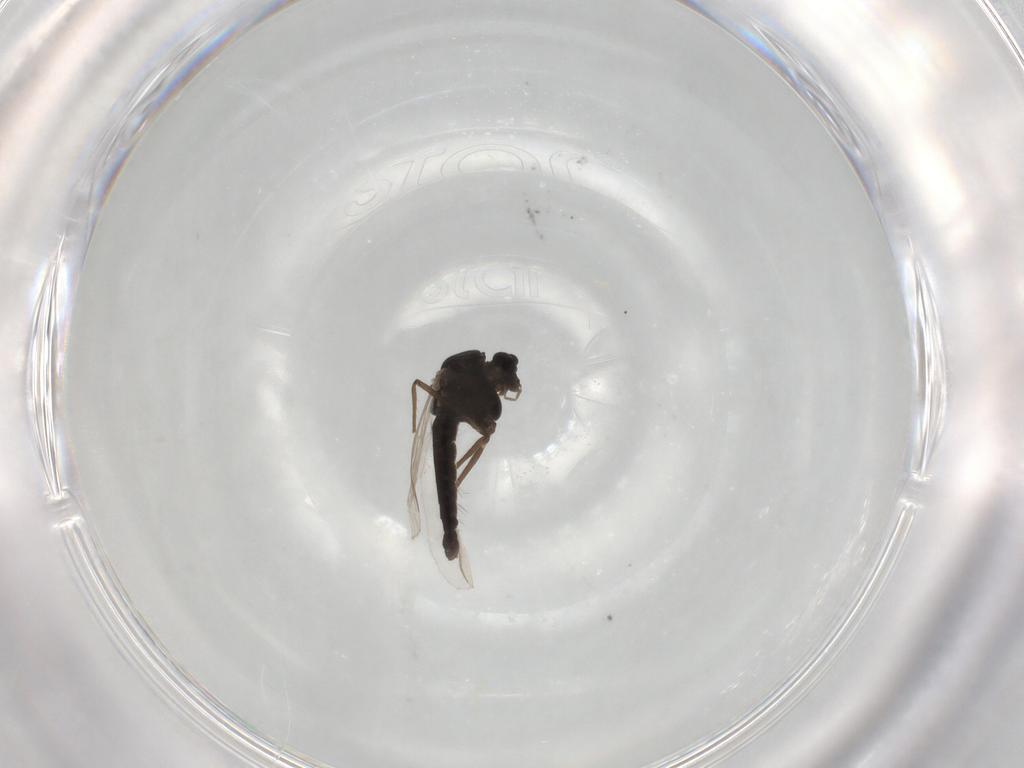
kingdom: Animalia
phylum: Arthropoda
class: Insecta
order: Diptera
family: Chironomidae
